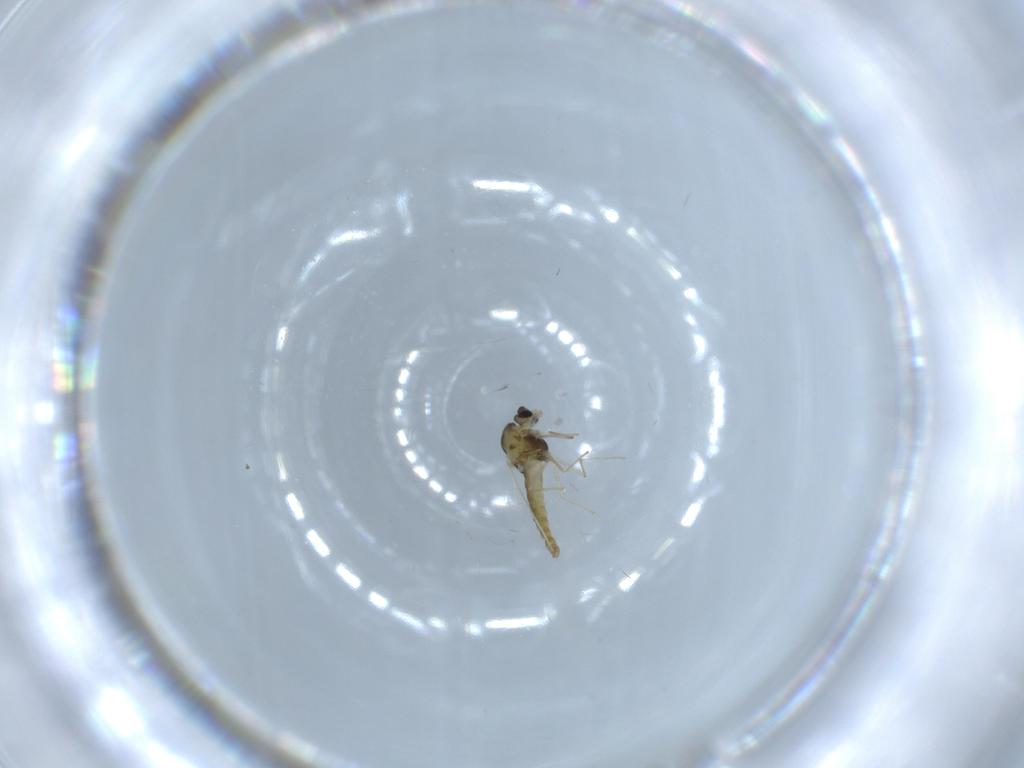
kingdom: Animalia
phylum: Arthropoda
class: Insecta
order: Diptera
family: Chironomidae
